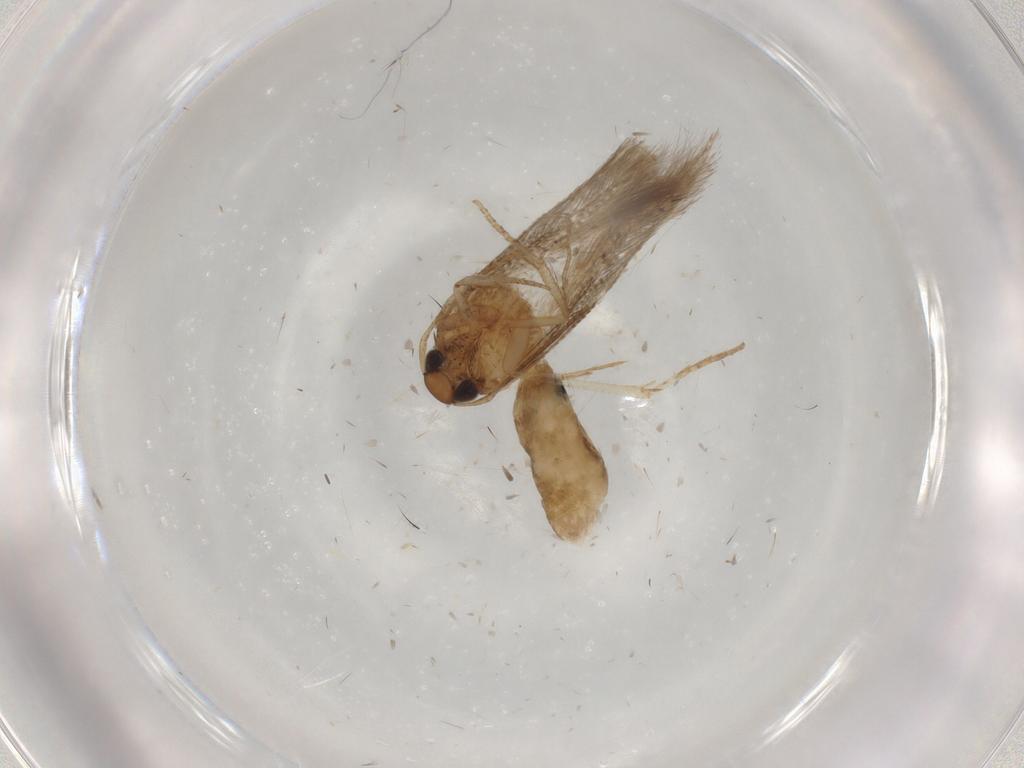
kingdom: Animalia
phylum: Arthropoda
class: Insecta
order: Lepidoptera
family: Cosmopterigidae
